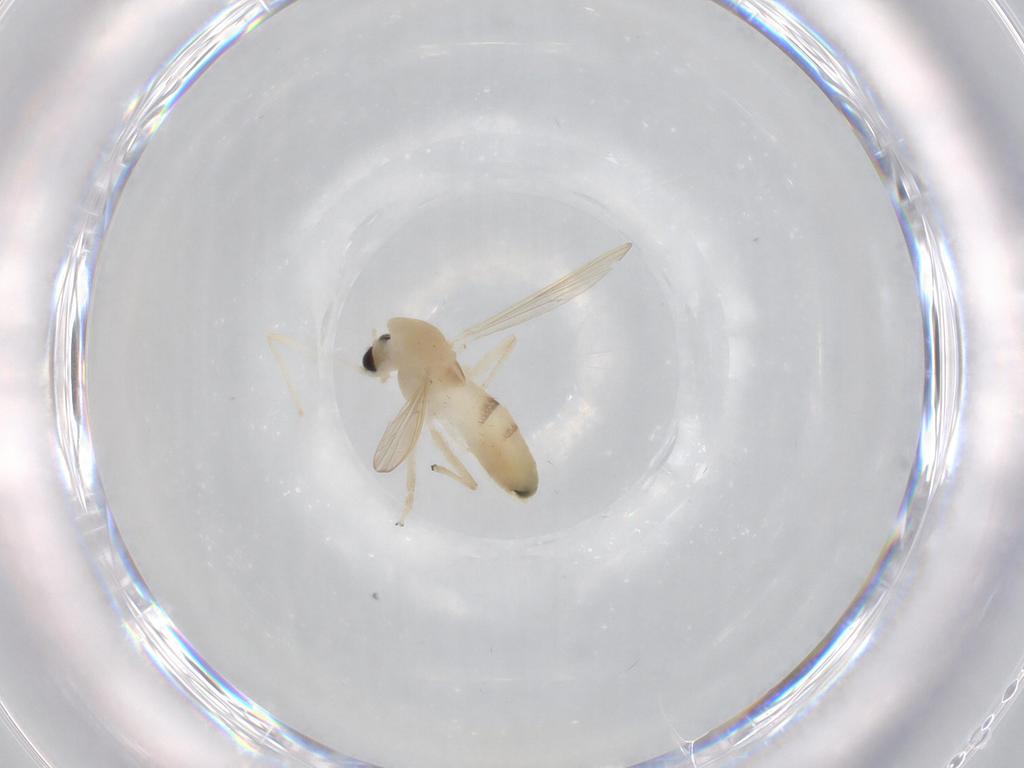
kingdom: Animalia
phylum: Arthropoda
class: Insecta
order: Diptera
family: Chironomidae
